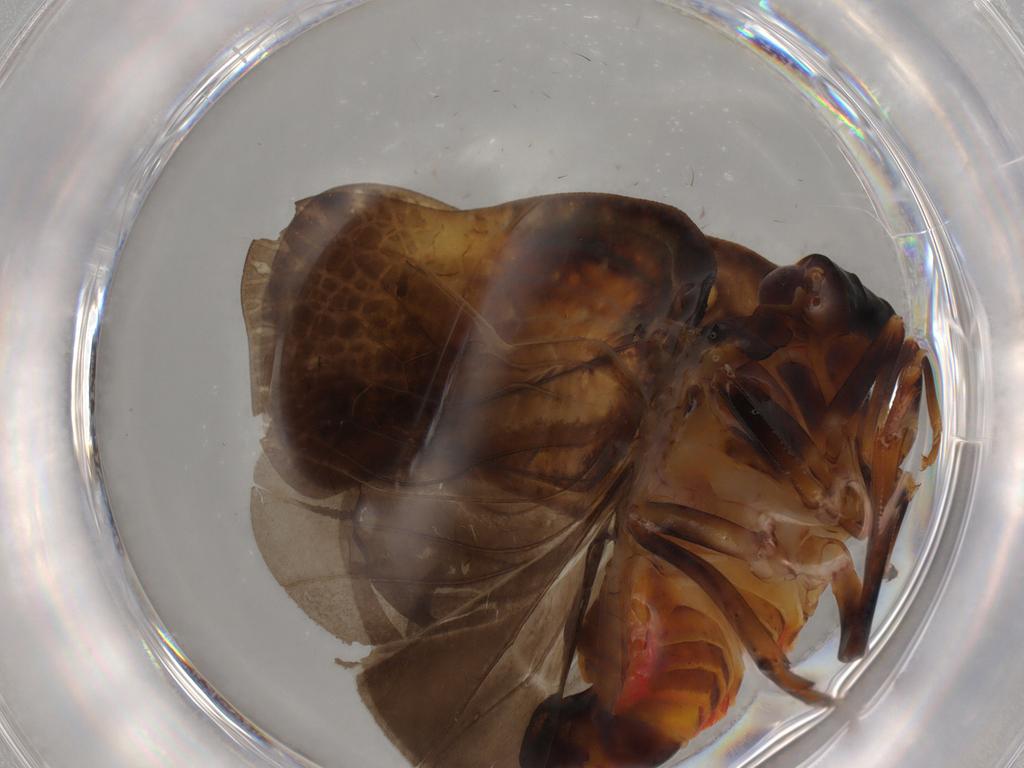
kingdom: Animalia
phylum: Arthropoda
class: Insecta
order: Hemiptera
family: Flatidae
